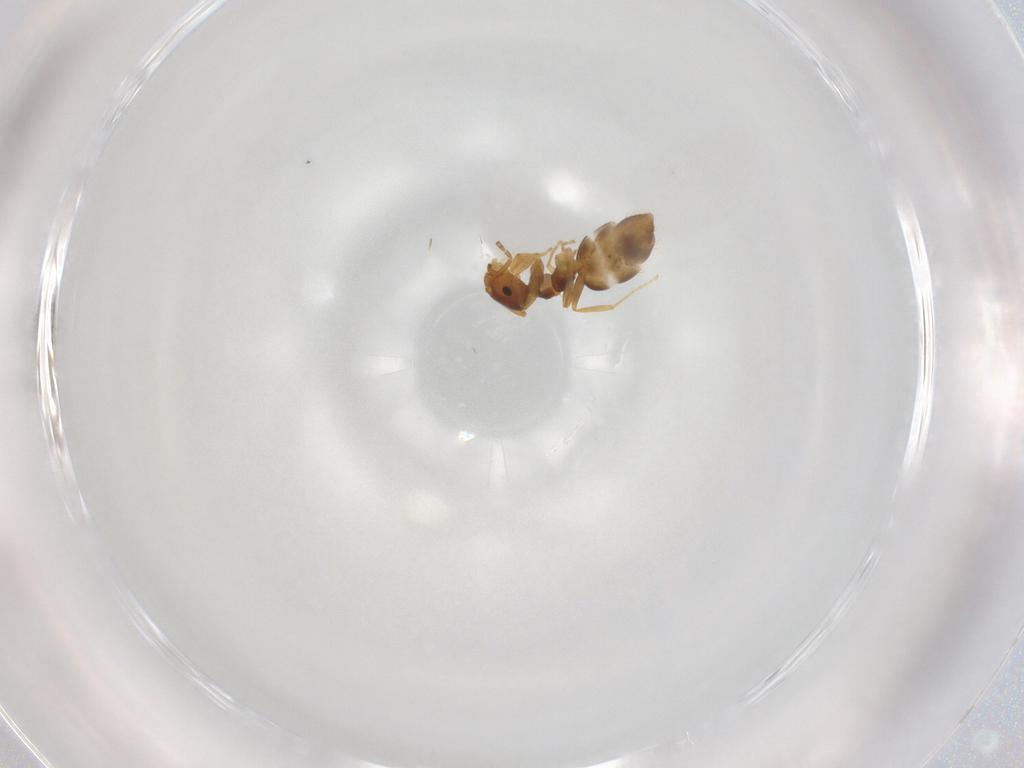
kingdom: Animalia
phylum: Arthropoda
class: Insecta
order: Hymenoptera
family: Formicidae
